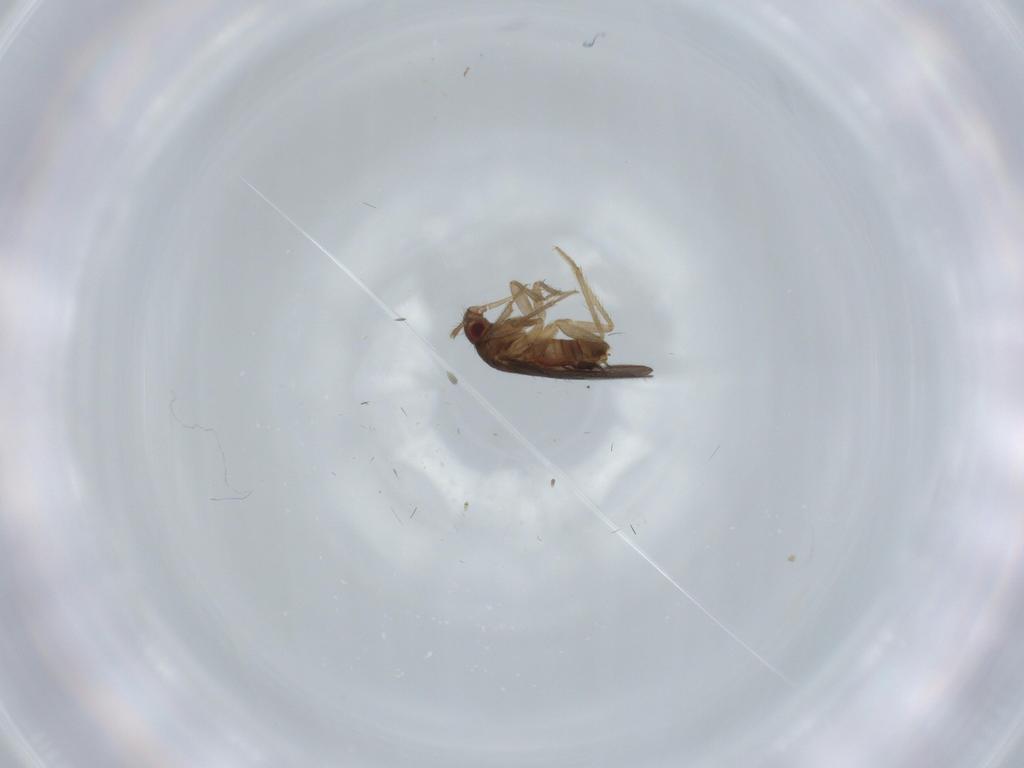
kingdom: Animalia
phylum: Arthropoda
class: Insecta
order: Hemiptera
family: Ceratocombidae
